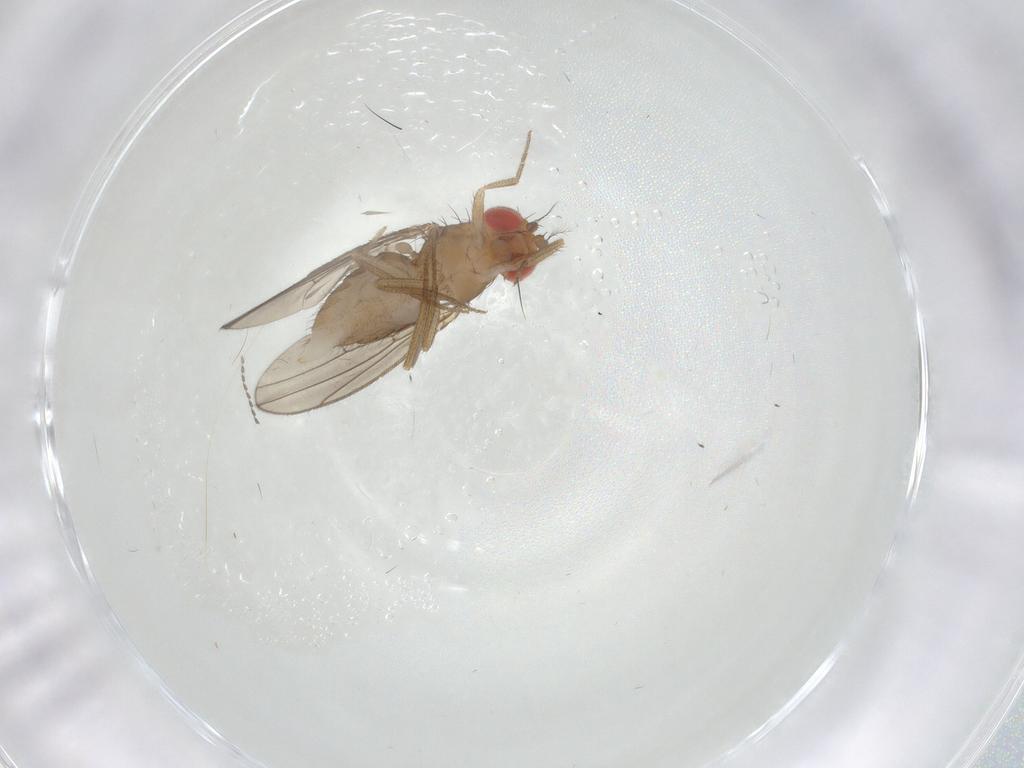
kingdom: Animalia
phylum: Arthropoda
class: Insecta
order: Diptera
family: Drosophilidae
